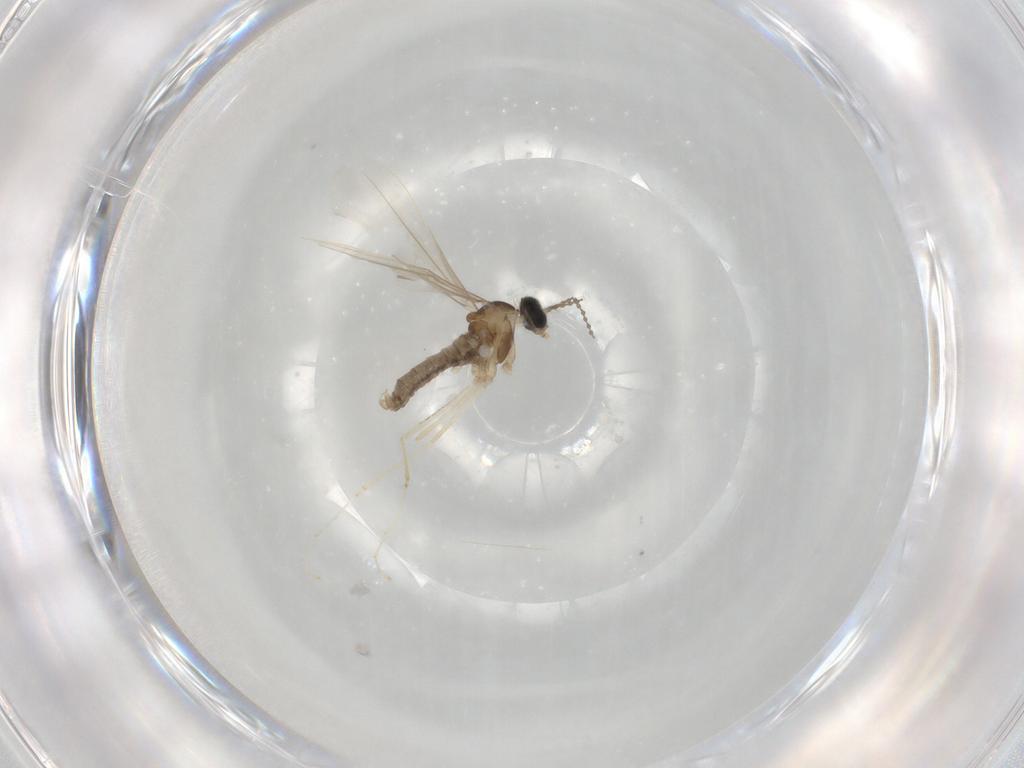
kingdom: Animalia
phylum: Arthropoda
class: Insecta
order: Diptera
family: Cecidomyiidae
